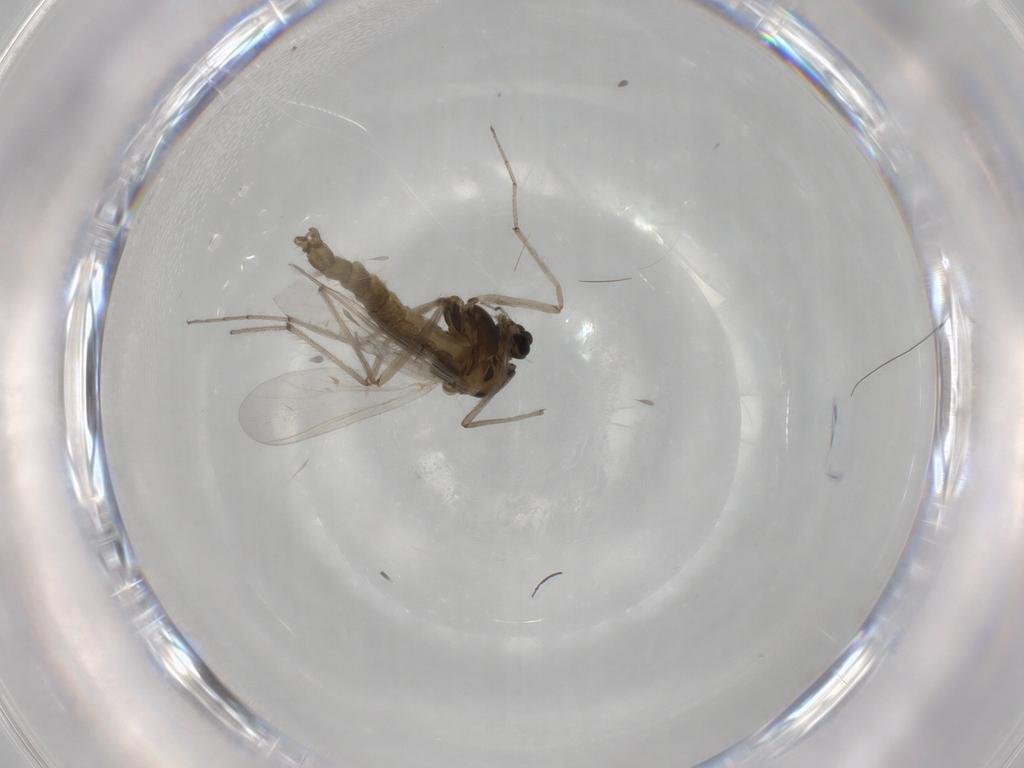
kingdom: Animalia
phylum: Arthropoda
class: Insecta
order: Diptera
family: Chironomidae
